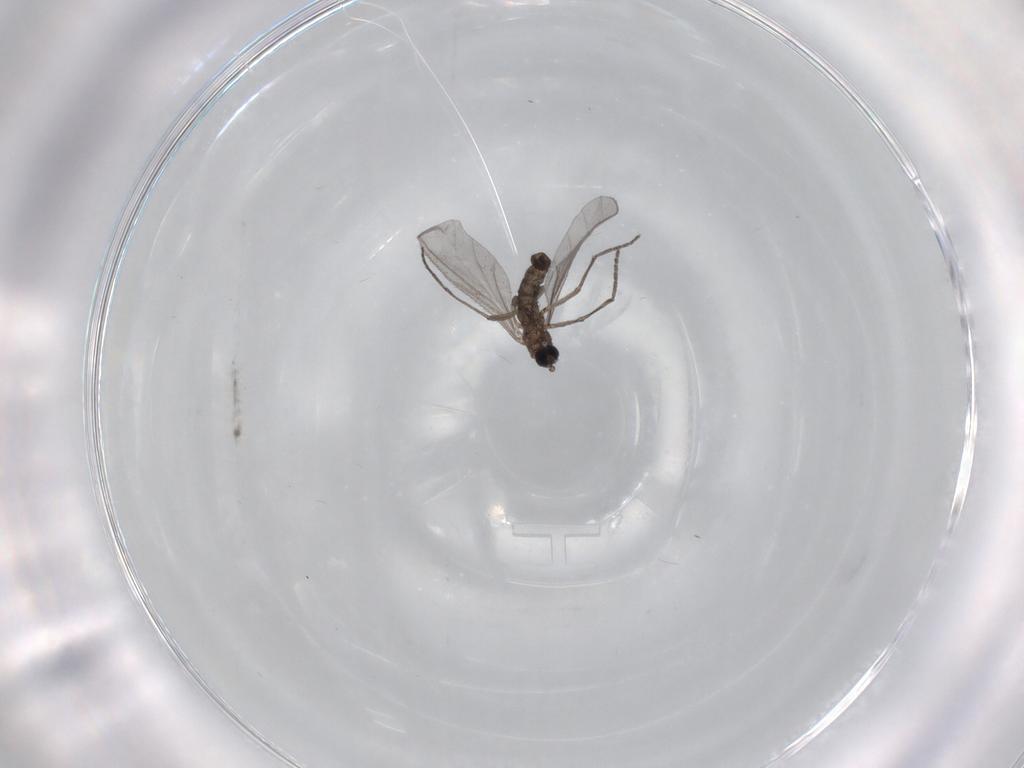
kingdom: Animalia
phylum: Arthropoda
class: Insecta
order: Diptera
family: Sciaridae
